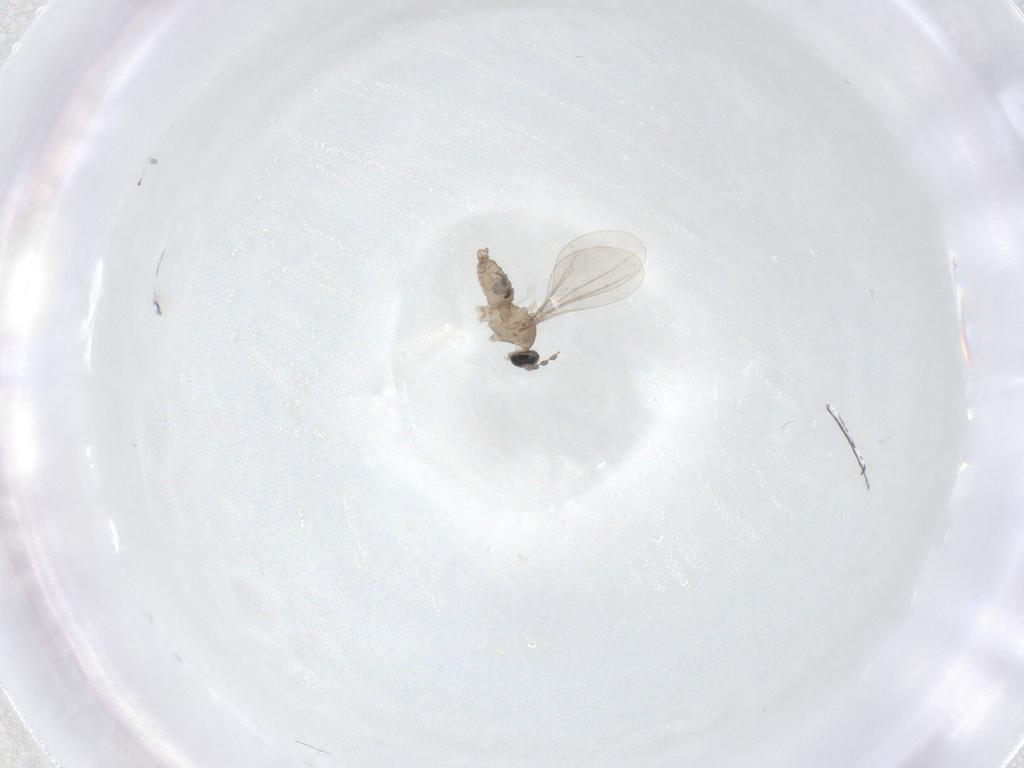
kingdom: Animalia
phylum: Arthropoda
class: Insecta
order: Diptera
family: Cecidomyiidae
